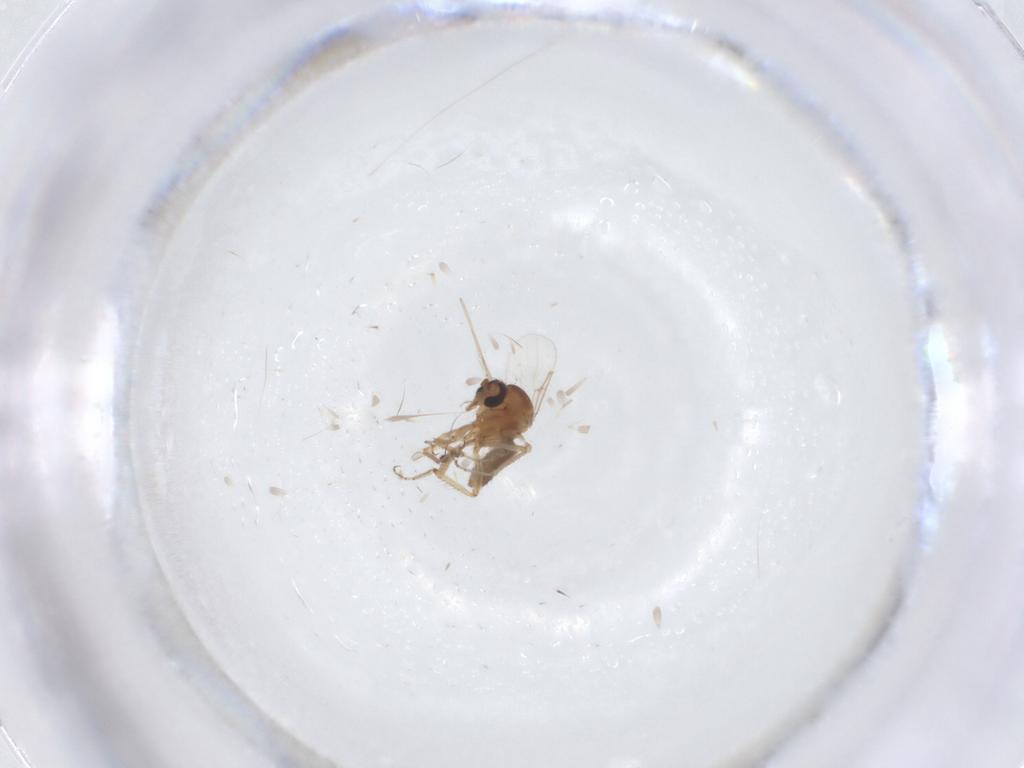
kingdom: Animalia
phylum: Arthropoda
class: Insecta
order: Diptera
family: Ceratopogonidae
